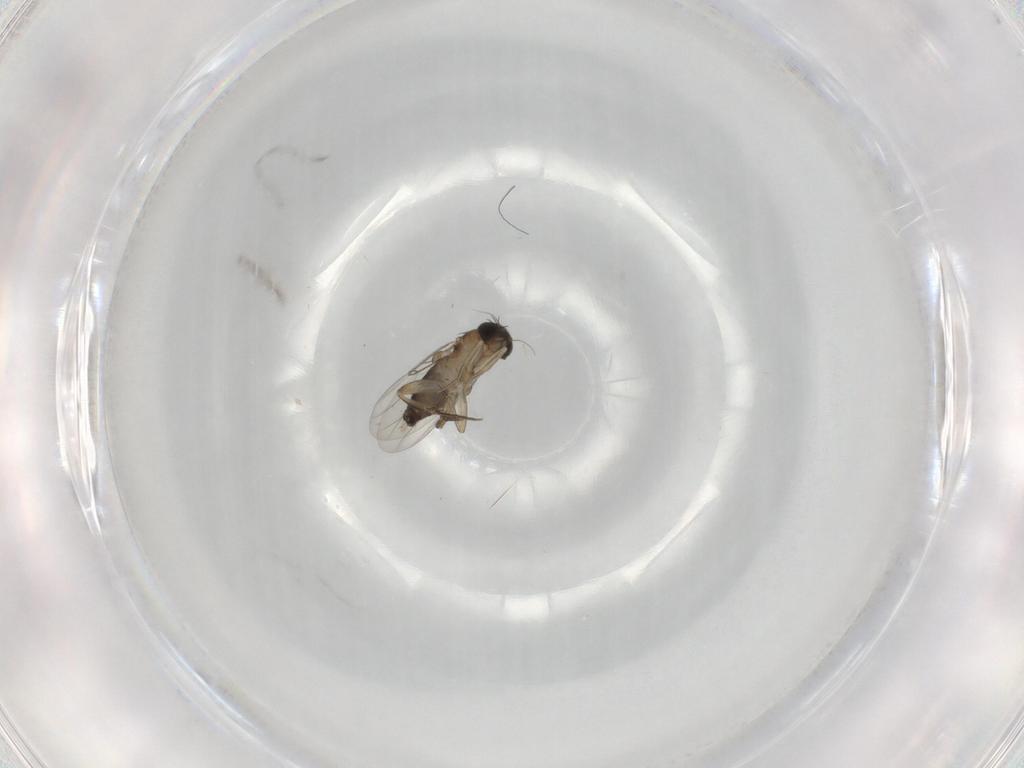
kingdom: Animalia
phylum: Arthropoda
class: Insecta
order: Diptera
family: Phoridae
